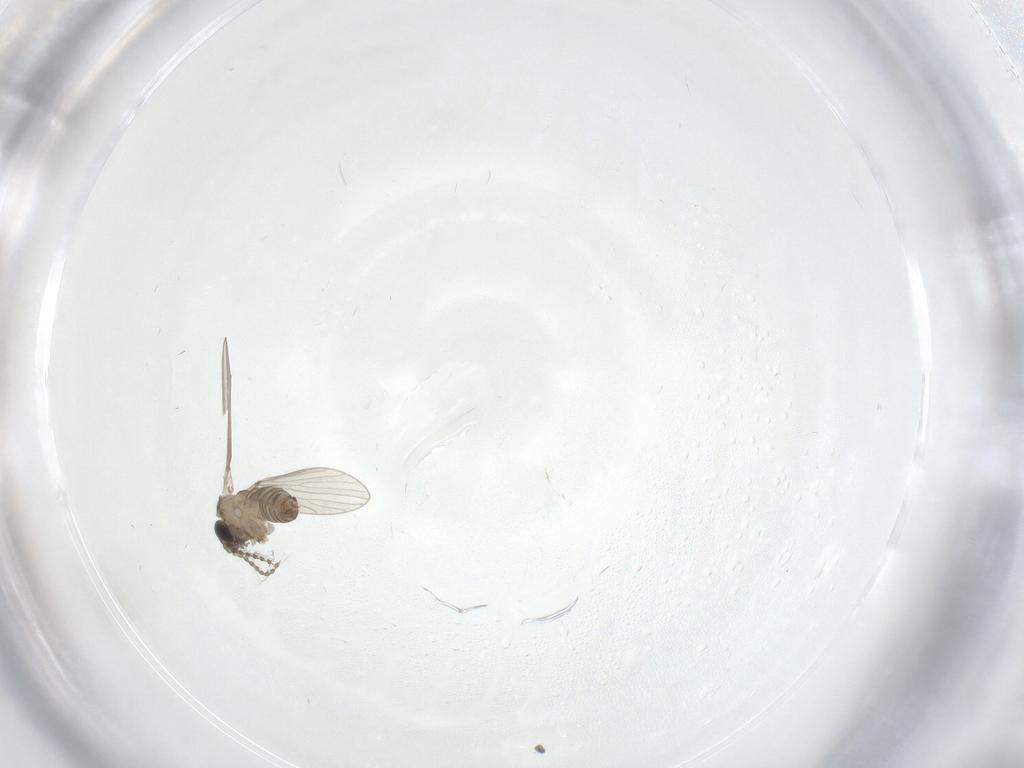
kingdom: Animalia
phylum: Arthropoda
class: Insecta
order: Diptera
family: Psychodidae
